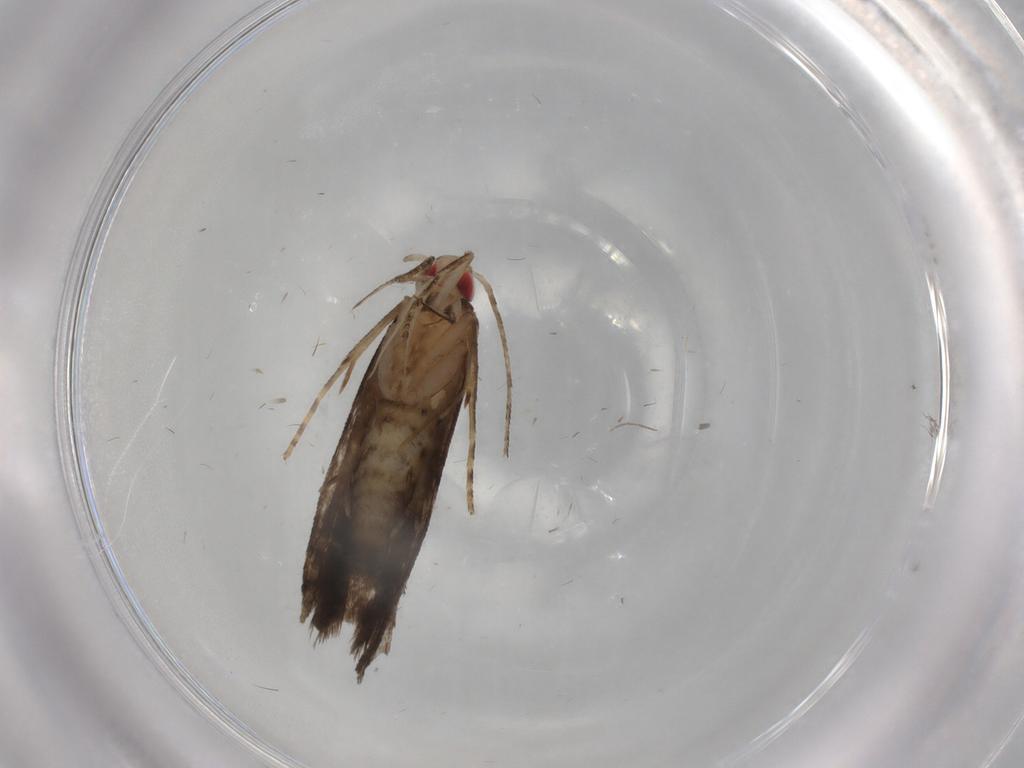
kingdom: Animalia
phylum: Arthropoda
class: Insecta
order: Lepidoptera
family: Gelechiidae
